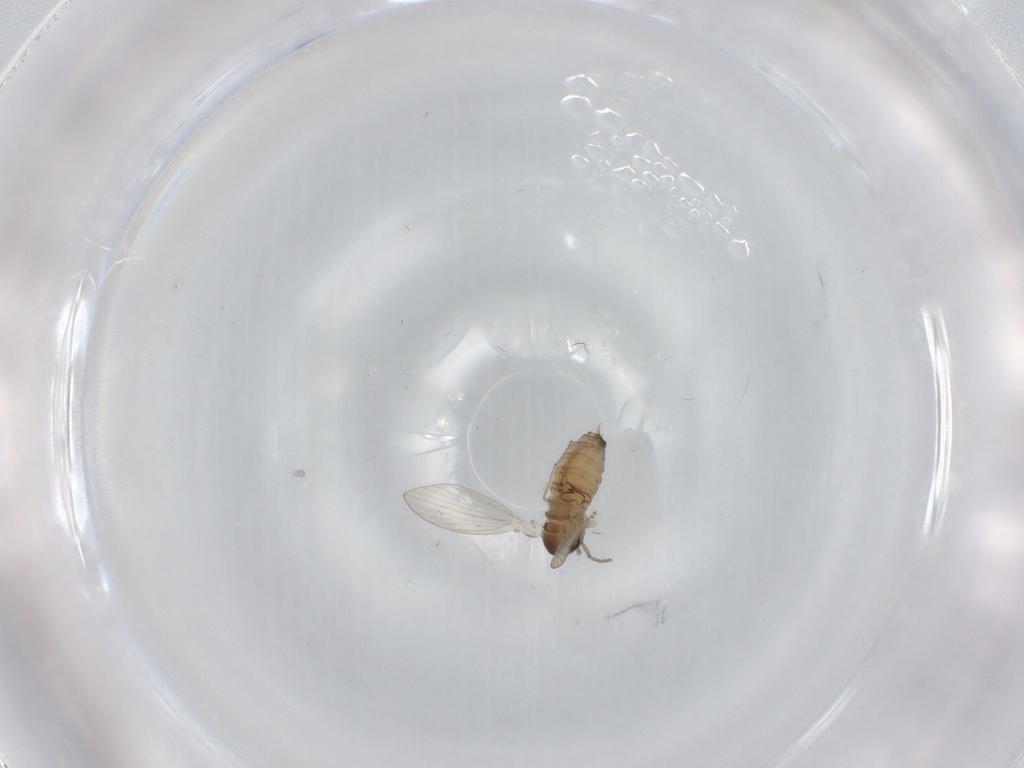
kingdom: Animalia
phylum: Arthropoda
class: Insecta
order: Diptera
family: Psychodidae
